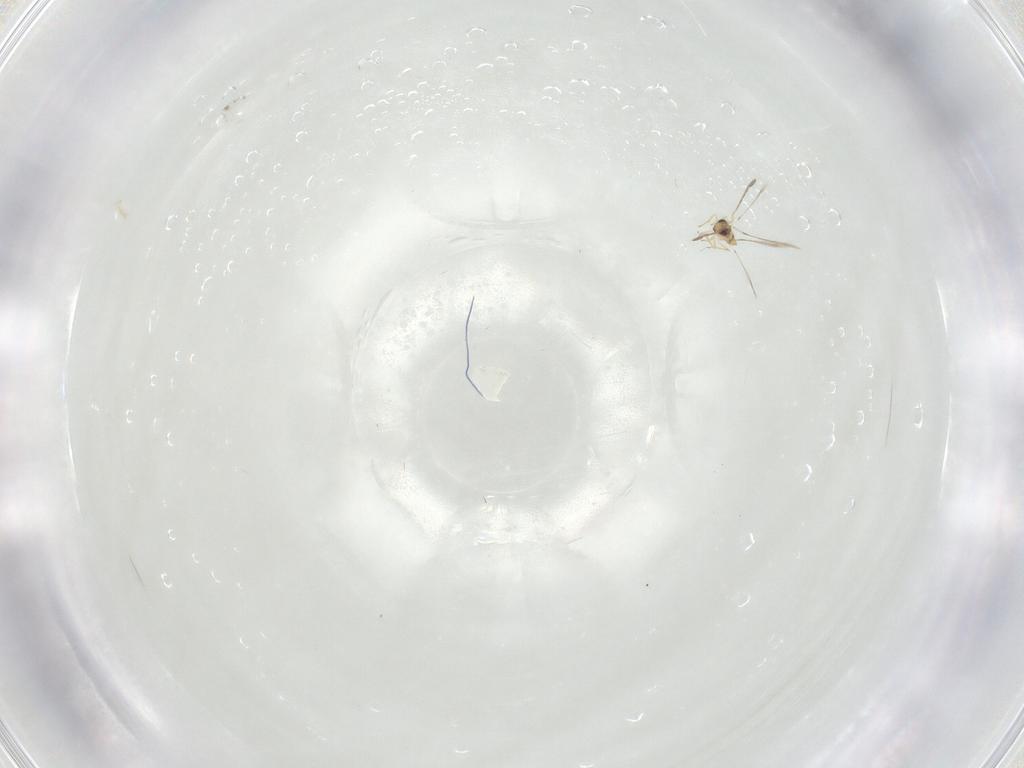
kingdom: Animalia
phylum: Arthropoda
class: Insecta
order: Hymenoptera
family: Mymaridae
